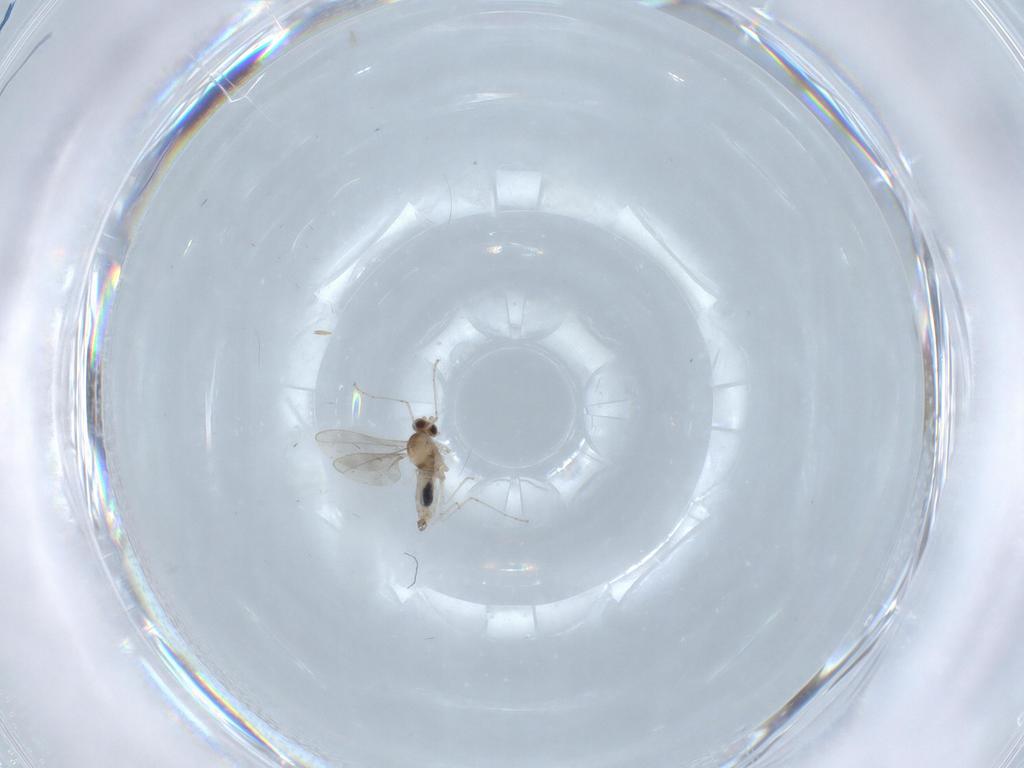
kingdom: Animalia
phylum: Arthropoda
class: Insecta
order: Diptera
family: Cecidomyiidae
